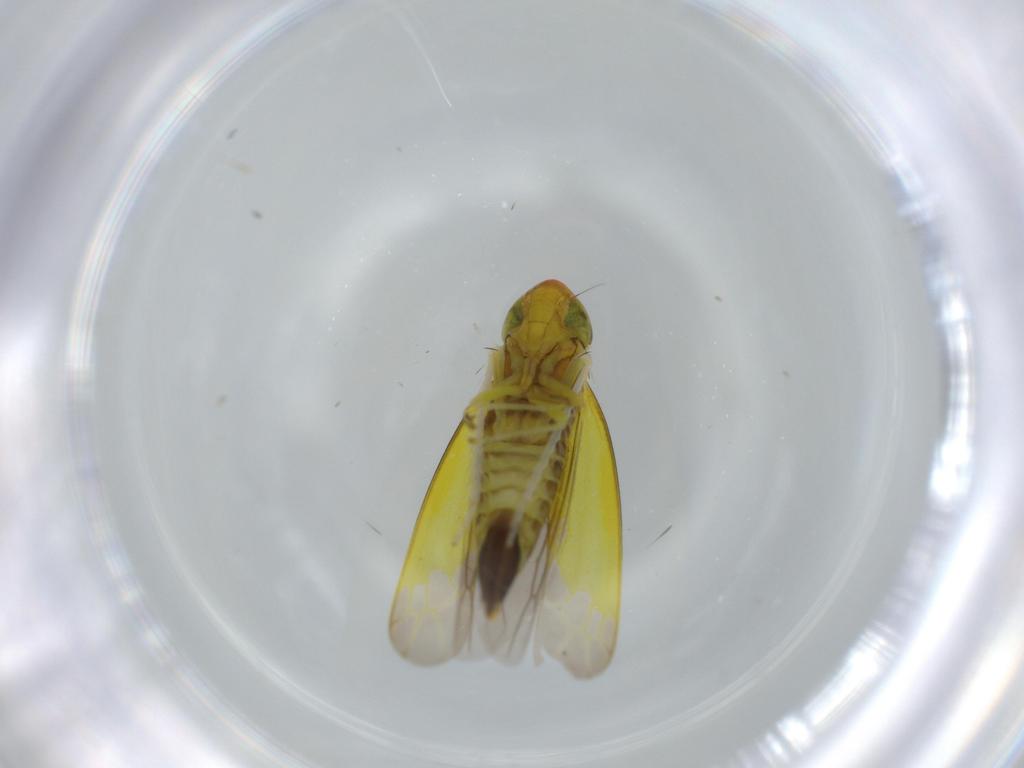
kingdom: Animalia
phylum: Arthropoda
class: Insecta
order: Hemiptera
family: Cicadellidae
